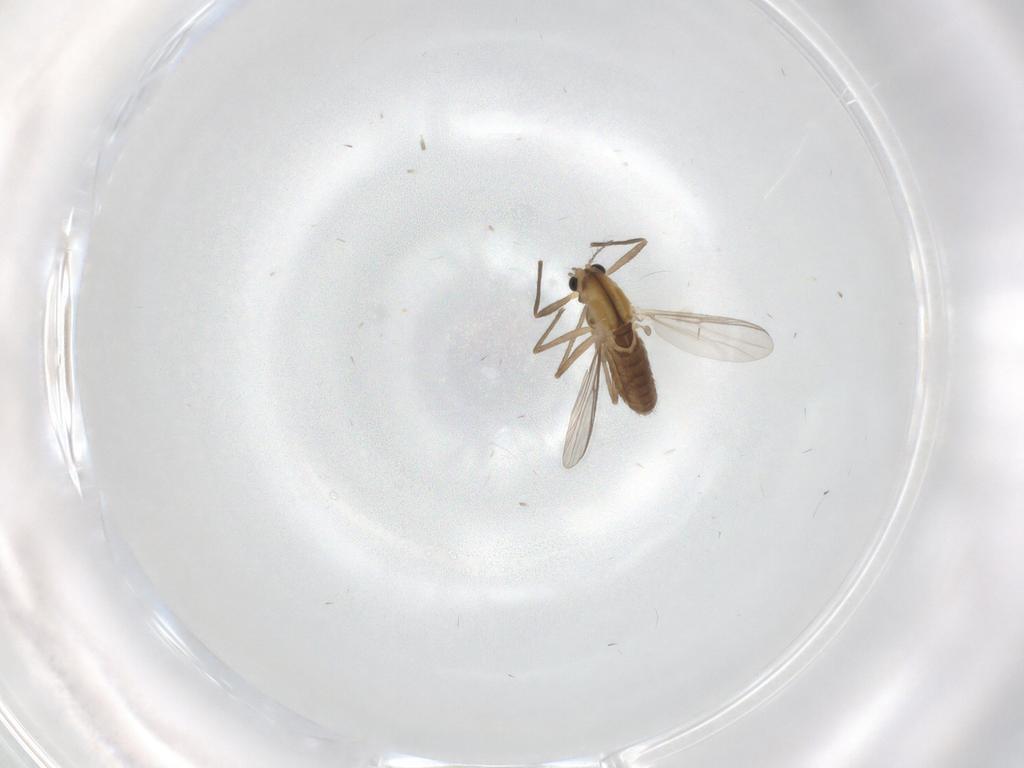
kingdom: Animalia
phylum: Arthropoda
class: Insecta
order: Diptera
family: Chironomidae
